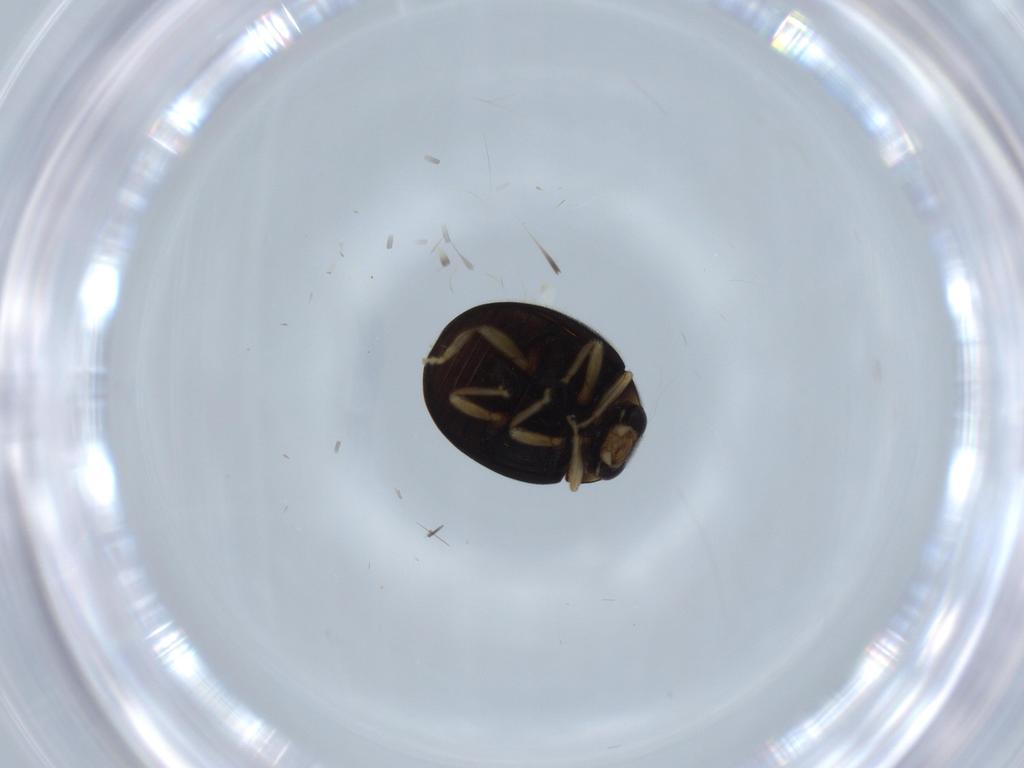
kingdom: Animalia
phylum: Arthropoda
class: Insecta
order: Coleoptera
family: Coccinellidae
